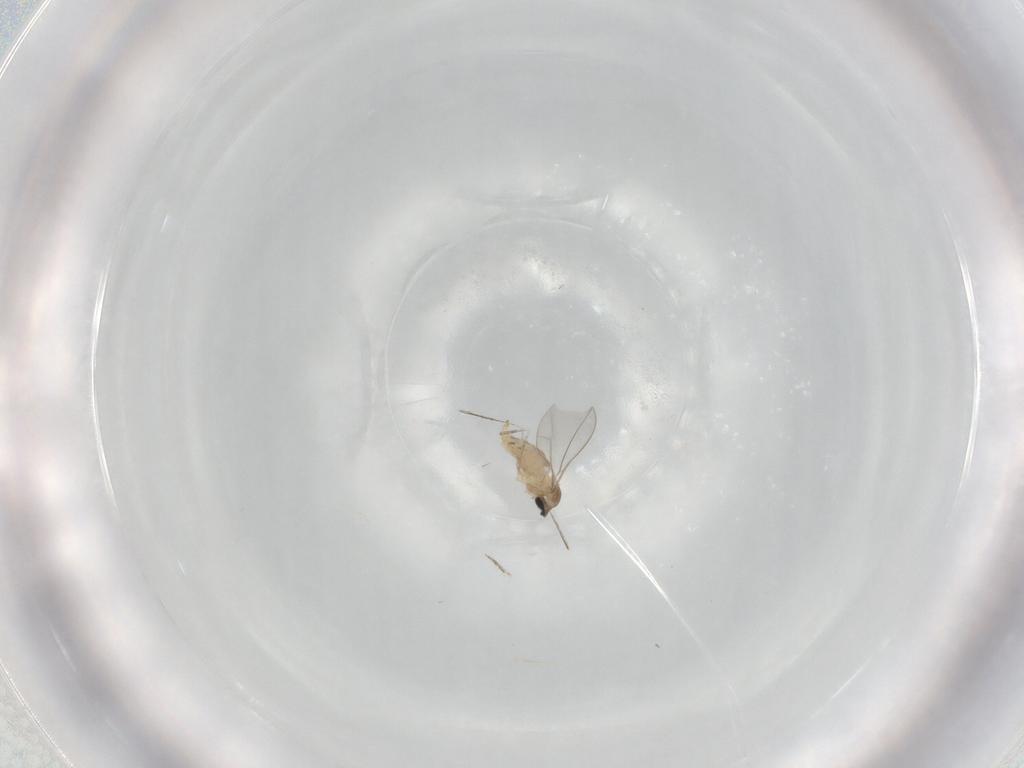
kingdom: Animalia
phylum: Arthropoda
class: Insecta
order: Diptera
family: Cecidomyiidae
